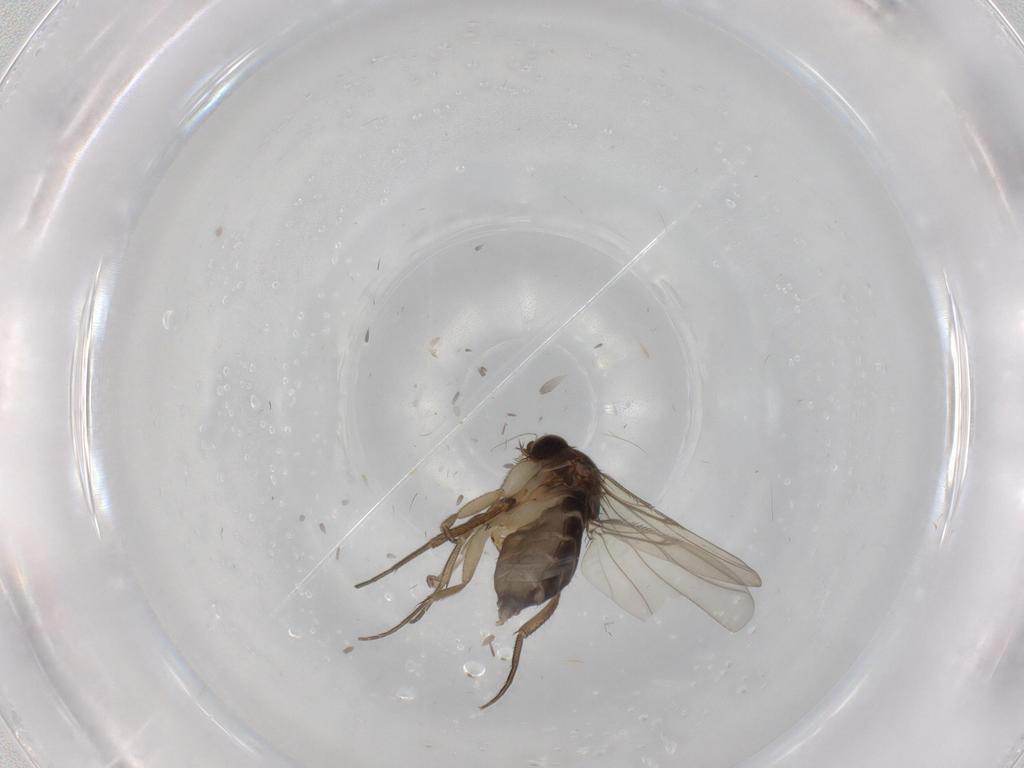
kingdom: Animalia
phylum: Arthropoda
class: Insecta
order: Diptera
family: Phoridae
